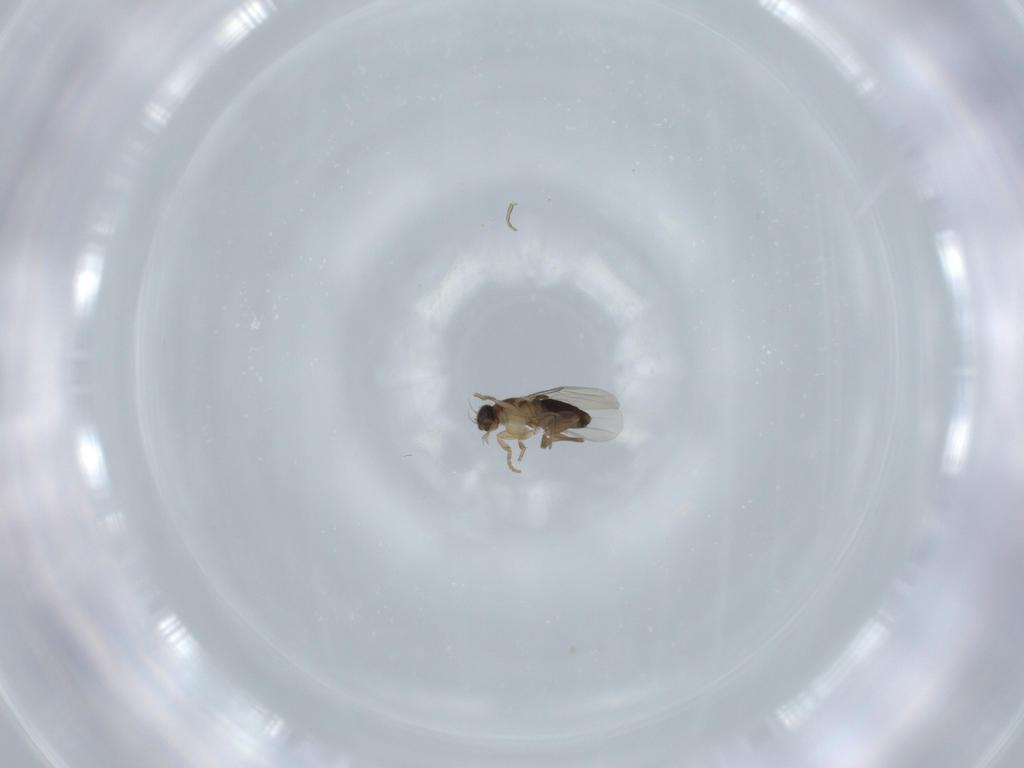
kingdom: Animalia
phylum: Arthropoda
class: Insecta
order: Diptera
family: Phoridae
